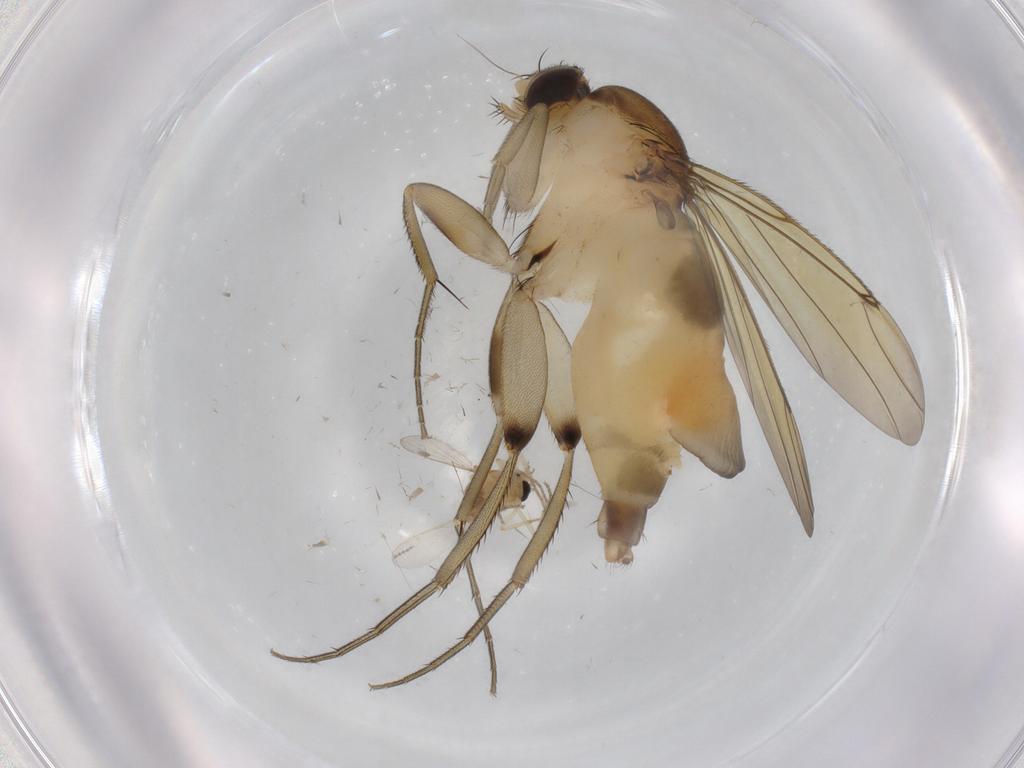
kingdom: Animalia
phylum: Arthropoda
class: Insecta
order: Diptera
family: Phoridae
